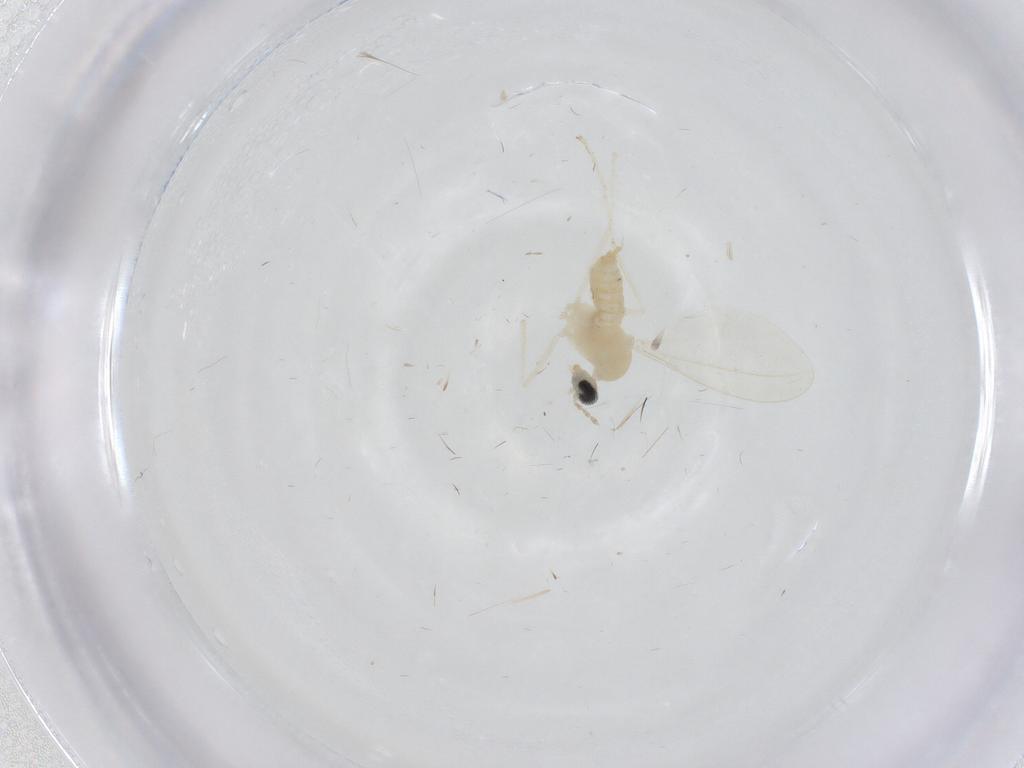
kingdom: Animalia
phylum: Arthropoda
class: Insecta
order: Diptera
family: Cecidomyiidae
